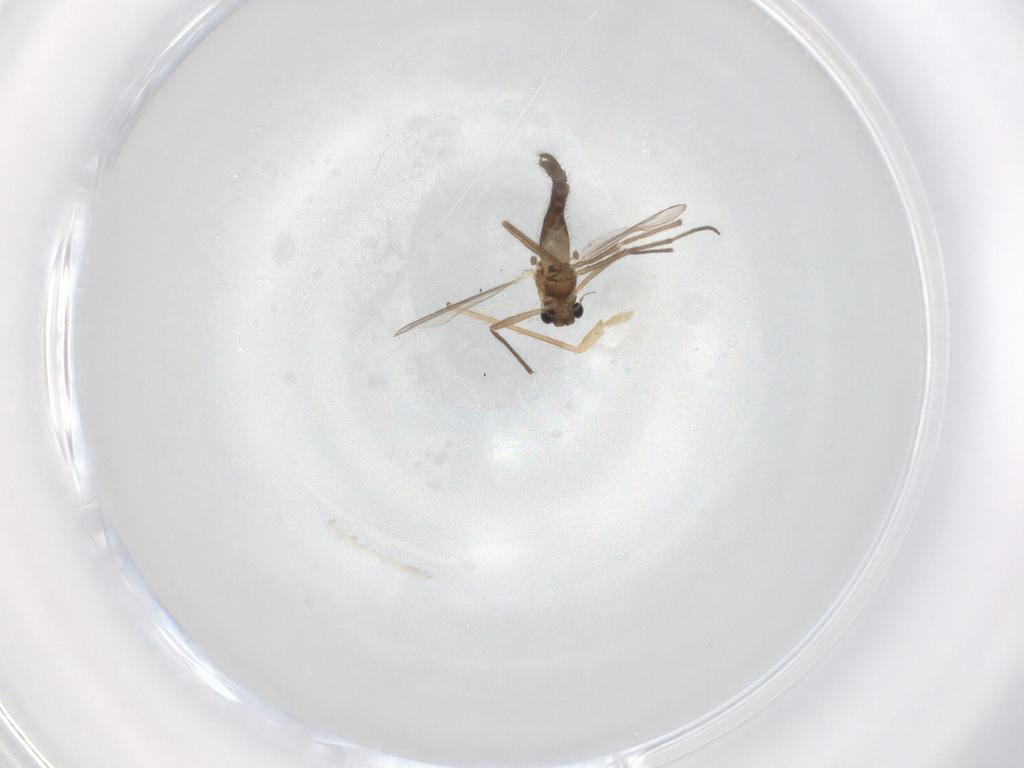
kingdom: Animalia
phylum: Arthropoda
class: Insecta
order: Diptera
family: Chironomidae
